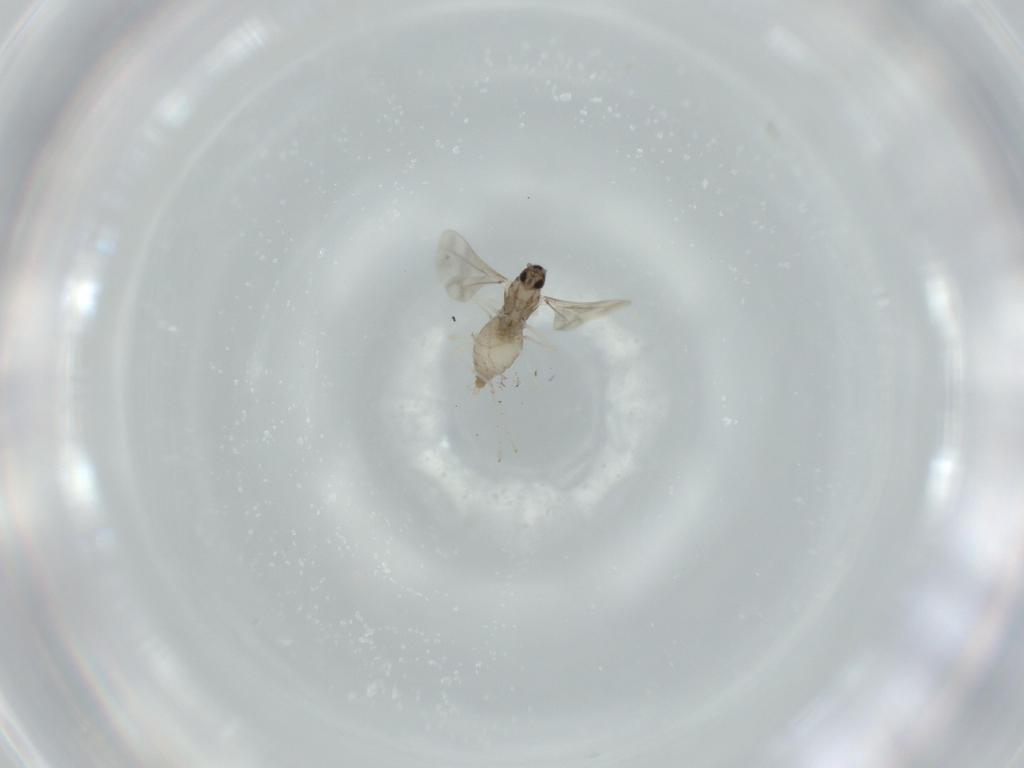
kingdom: Animalia
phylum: Arthropoda
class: Insecta
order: Diptera
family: Cecidomyiidae
